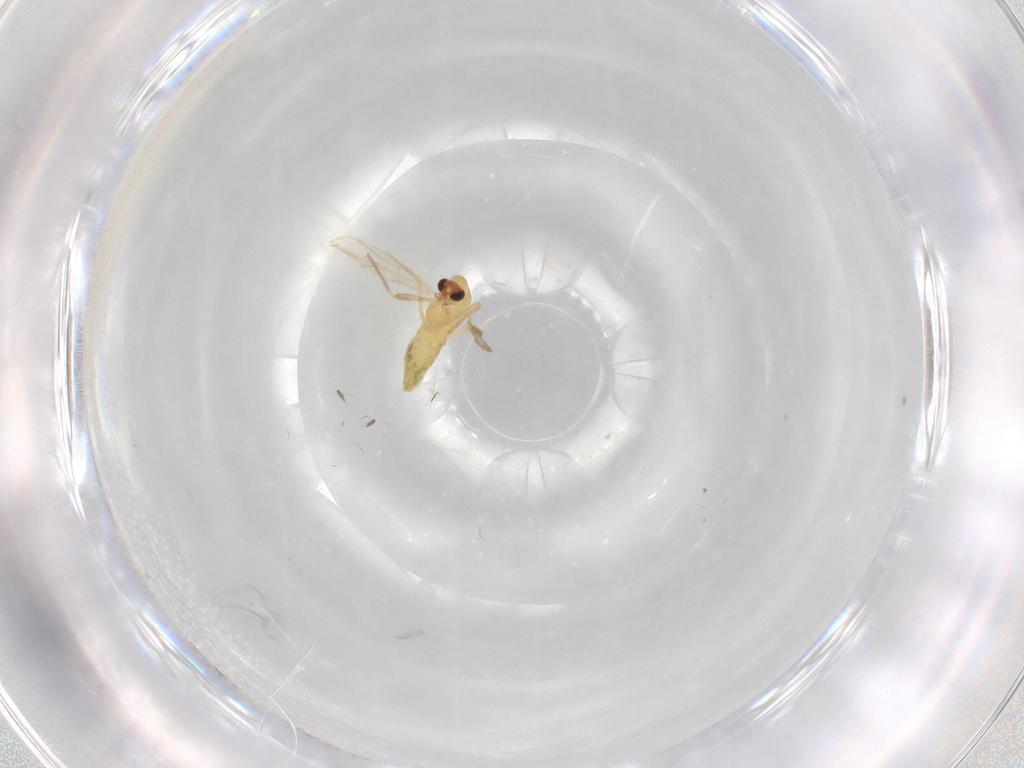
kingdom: Animalia
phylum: Arthropoda
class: Insecta
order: Diptera
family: Chironomidae
